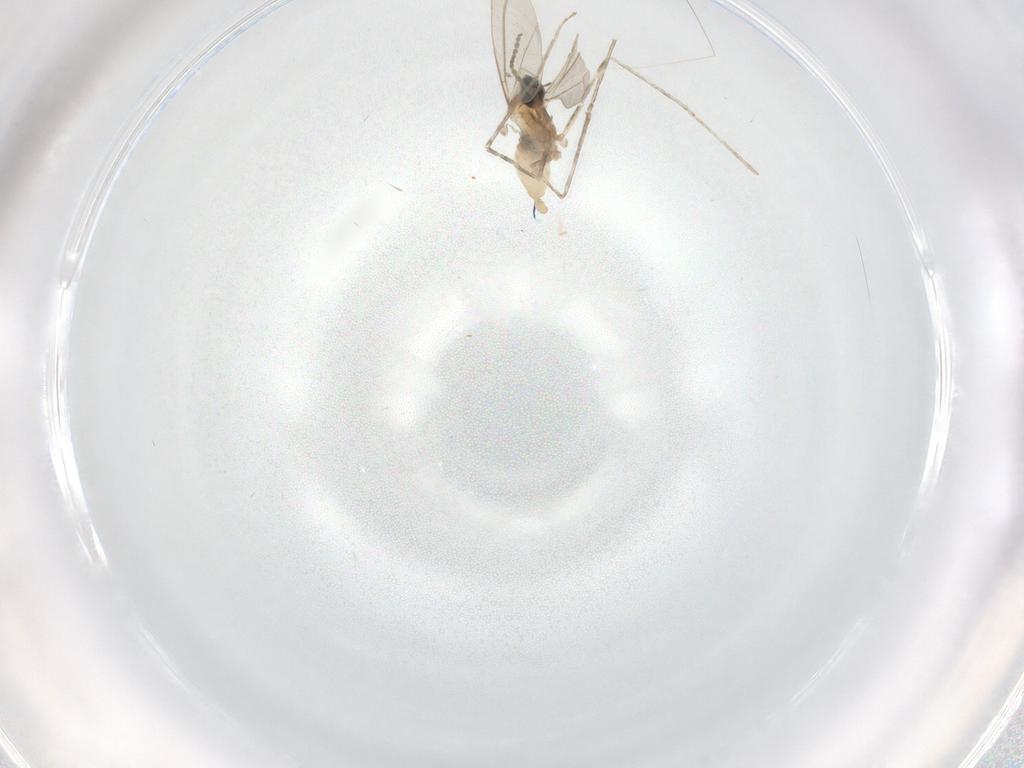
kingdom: Animalia
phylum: Arthropoda
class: Insecta
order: Diptera
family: Cecidomyiidae
